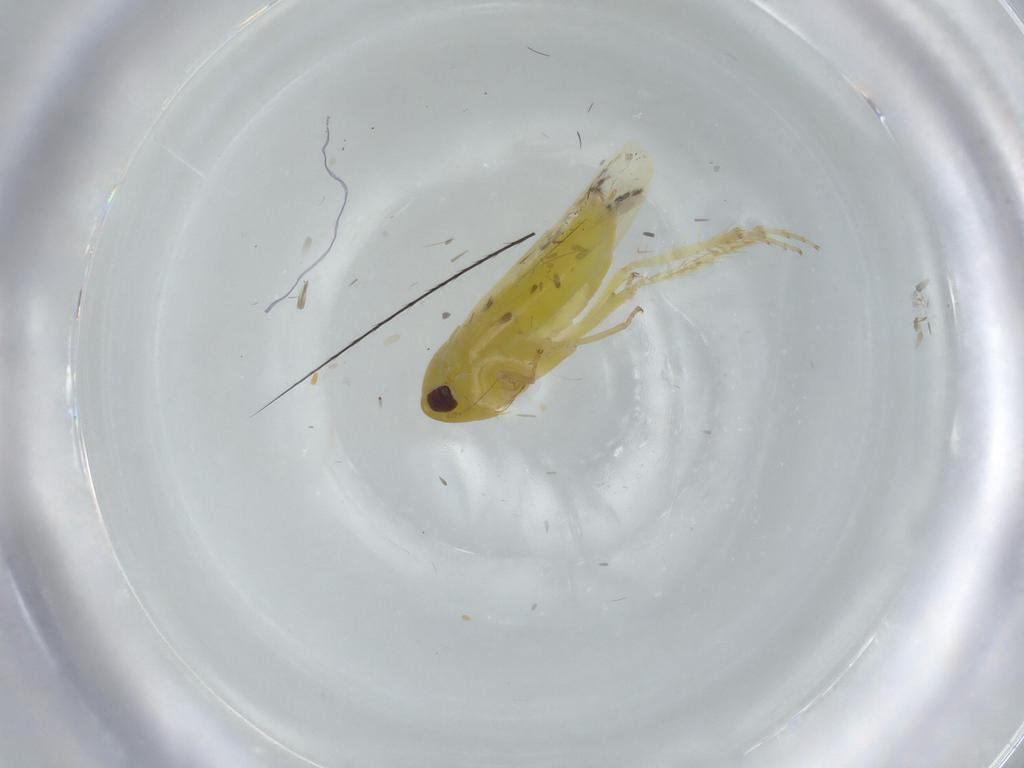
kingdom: Animalia
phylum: Arthropoda
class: Insecta
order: Hemiptera
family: Cicadellidae
